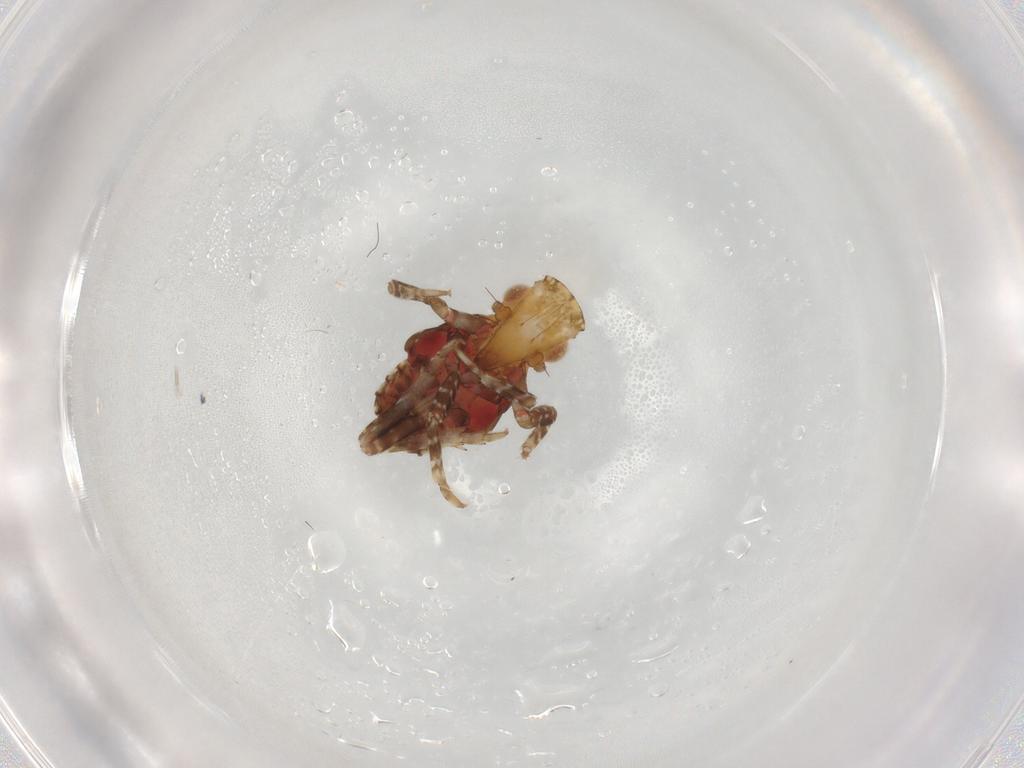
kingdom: Animalia
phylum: Arthropoda
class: Insecta
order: Hemiptera
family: Fulgoridae
